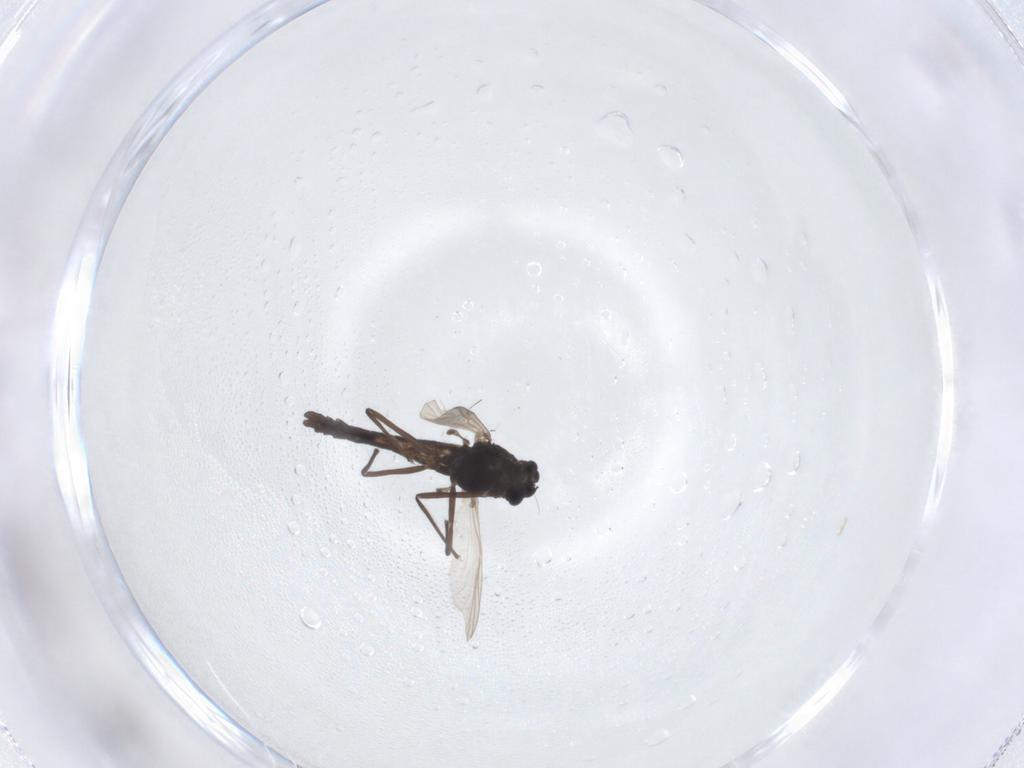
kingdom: Animalia
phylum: Arthropoda
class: Insecta
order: Diptera
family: Chironomidae
